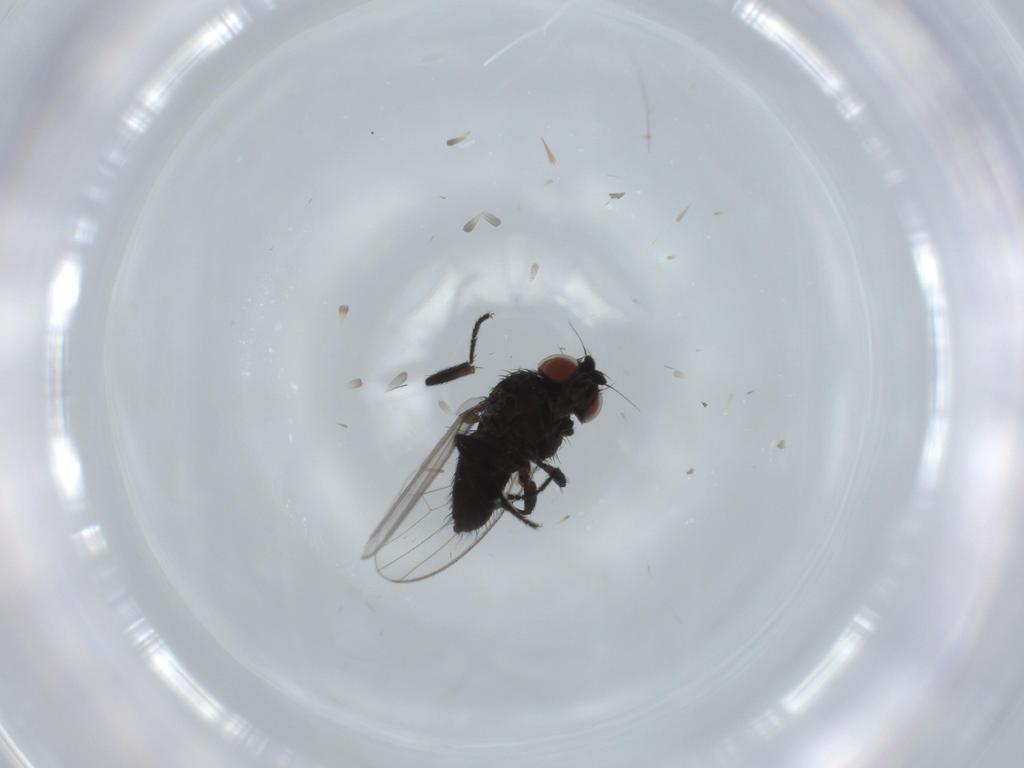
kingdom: Animalia
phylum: Arthropoda
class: Insecta
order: Diptera
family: Milichiidae
